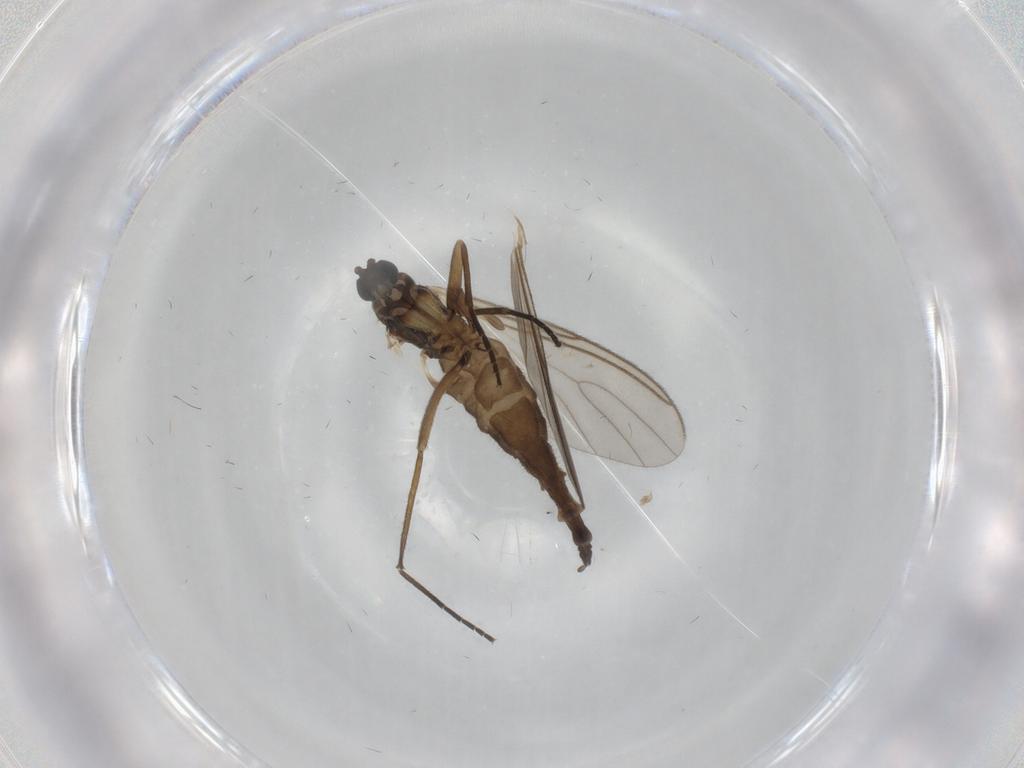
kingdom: Animalia
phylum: Arthropoda
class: Insecta
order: Diptera
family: Sciaridae
